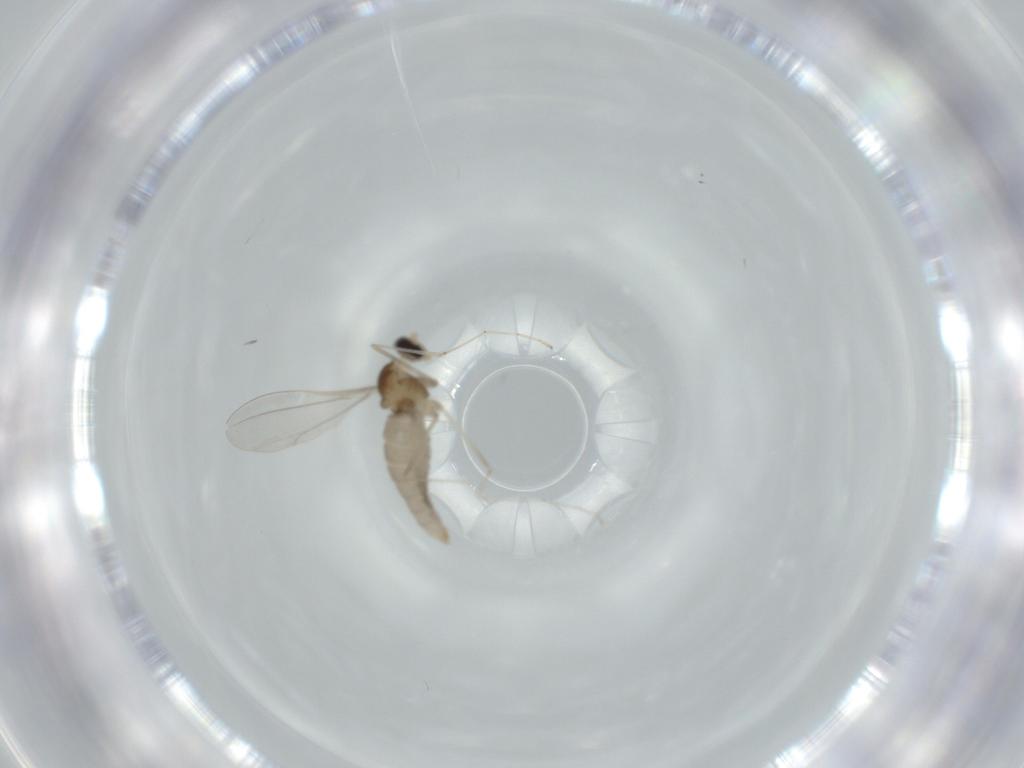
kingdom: Animalia
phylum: Arthropoda
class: Insecta
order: Diptera
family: Cecidomyiidae
